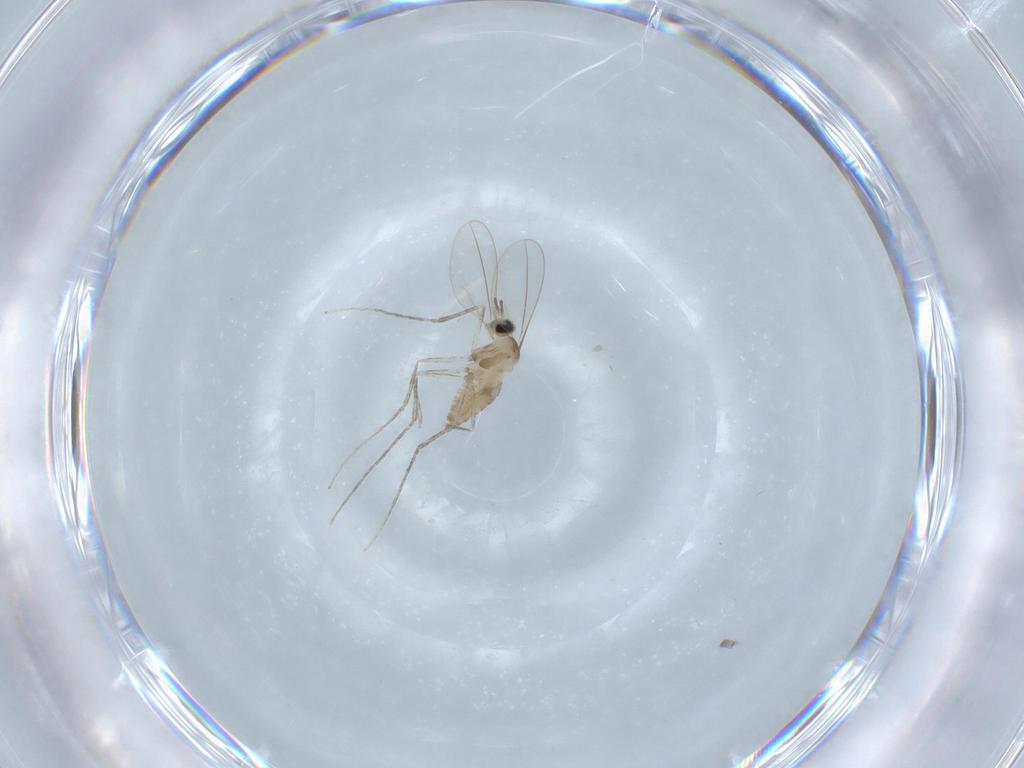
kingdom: Animalia
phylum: Arthropoda
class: Insecta
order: Diptera
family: Cecidomyiidae
